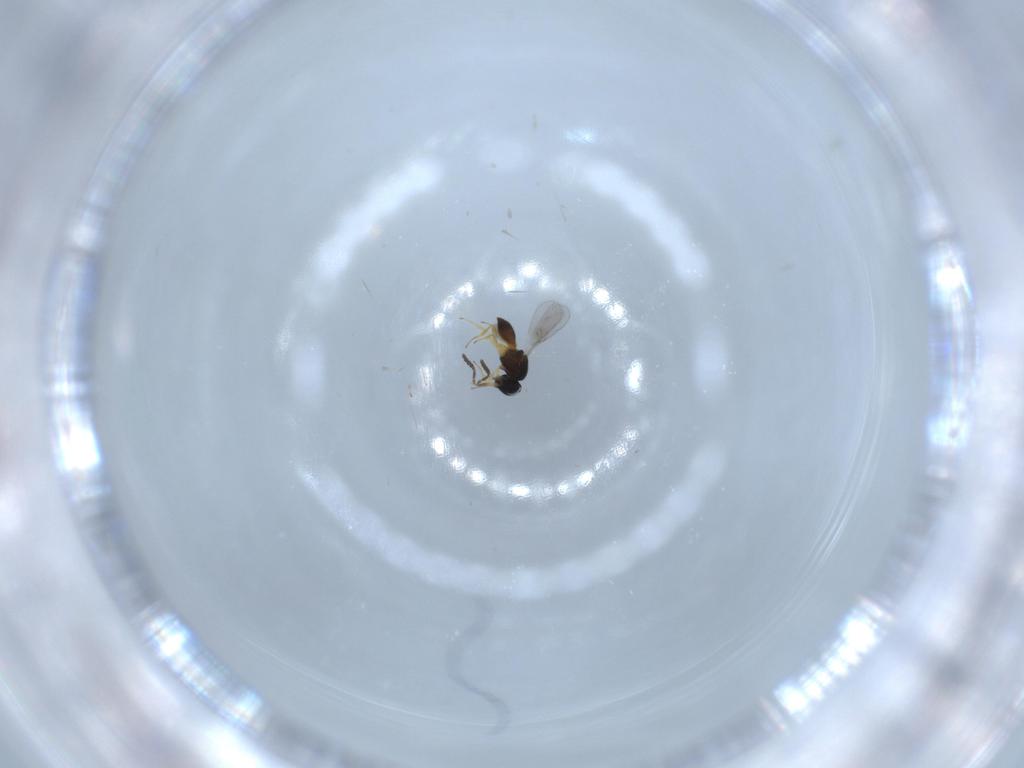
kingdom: Animalia
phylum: Arthropoda
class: Insecta
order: Hymenoptera
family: Scelionidae
